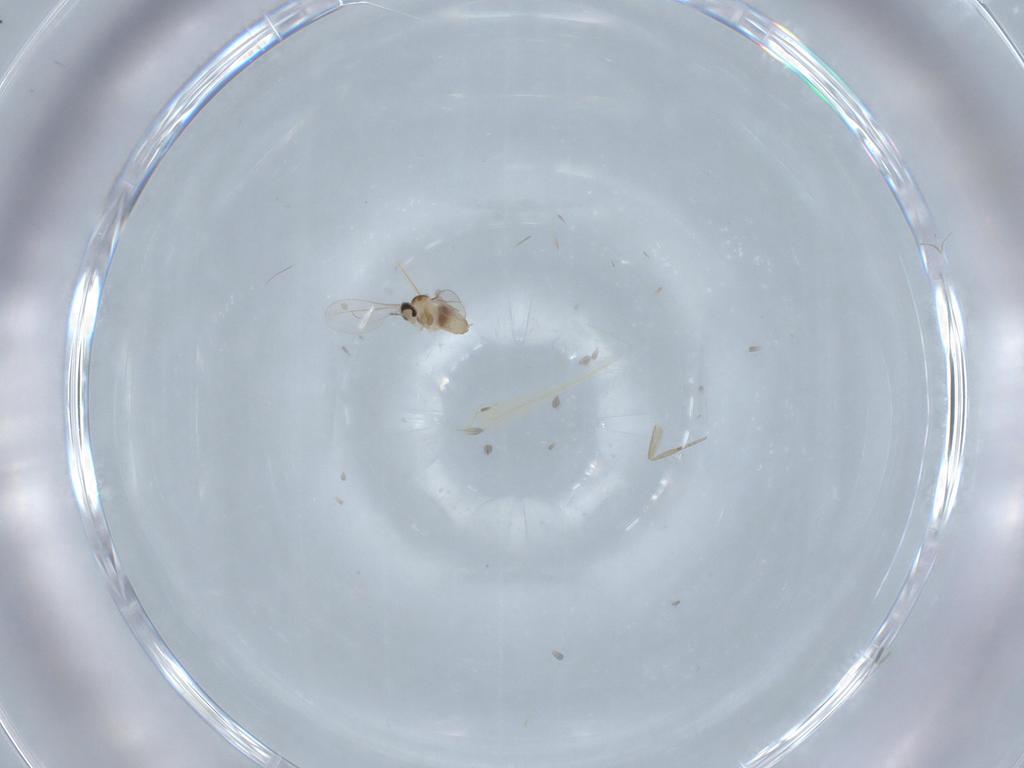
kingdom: Animalia
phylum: Arthropoda
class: Insecta
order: Diptera
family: Cecidomyiidae
